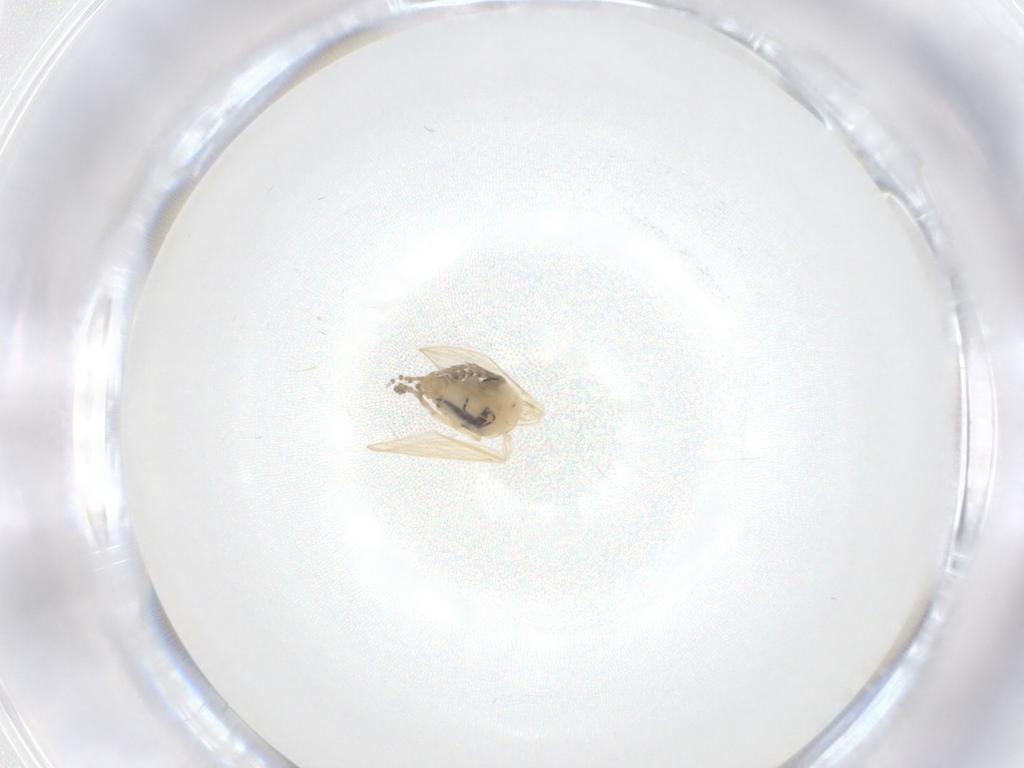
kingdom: Animalia
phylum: Arthropoda
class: Insecta
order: Diptera
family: Psychodidae
